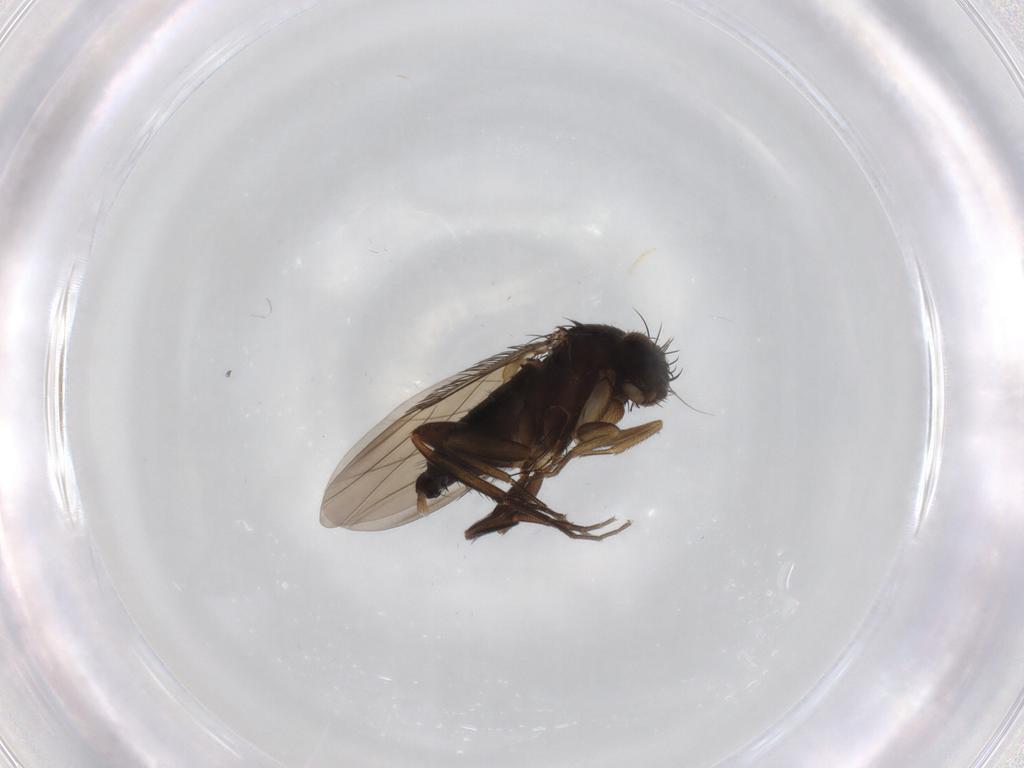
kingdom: Animalia
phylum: Arthropoda
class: Insecta
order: Diptera
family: Phoridae
